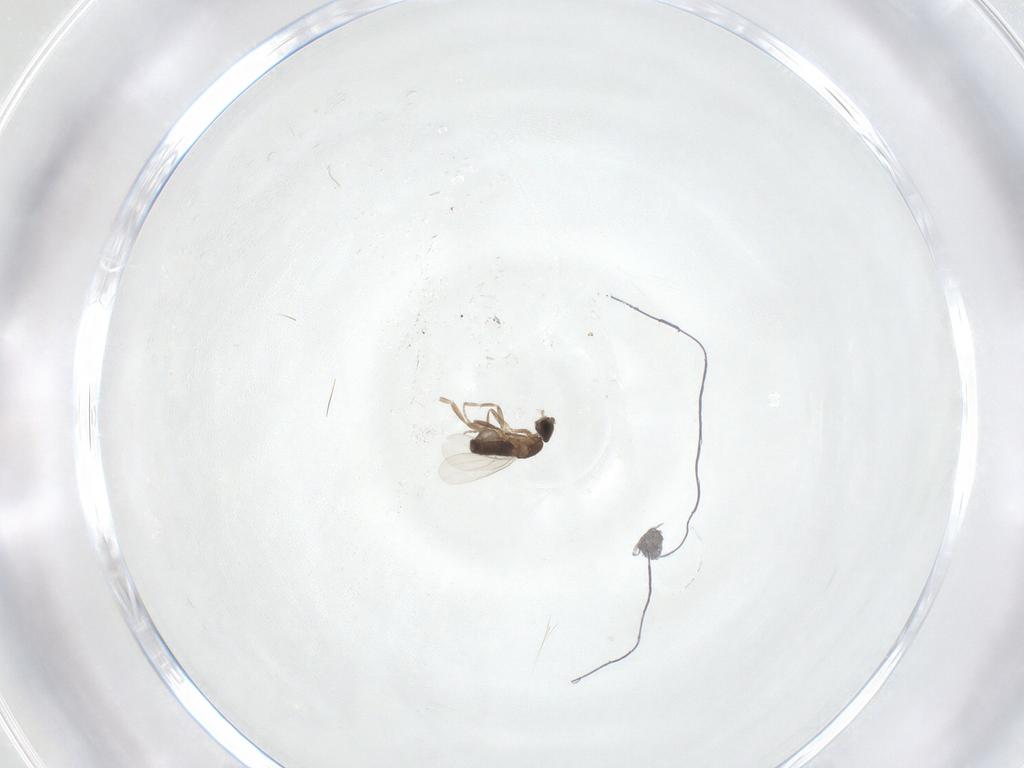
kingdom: Animalia
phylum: Arthropoda
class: Insecta
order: Diptera
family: Phoridae
